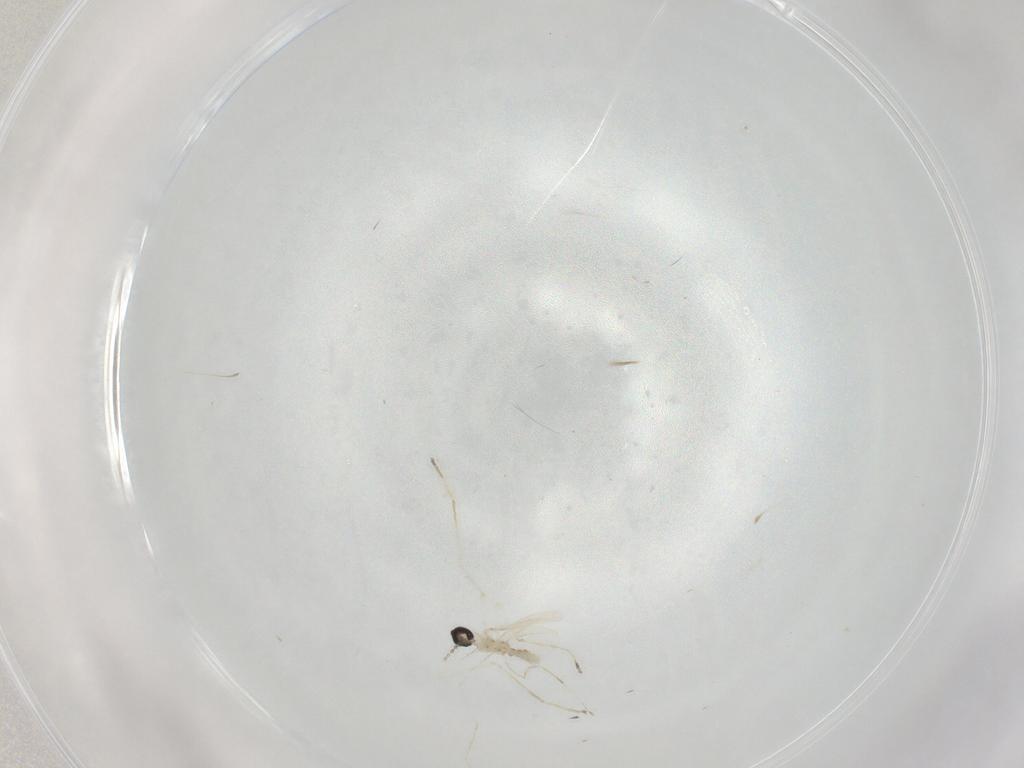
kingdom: Animalia
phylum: Arthropoda
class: Insecta
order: Diptera
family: Cecidomyiidae
